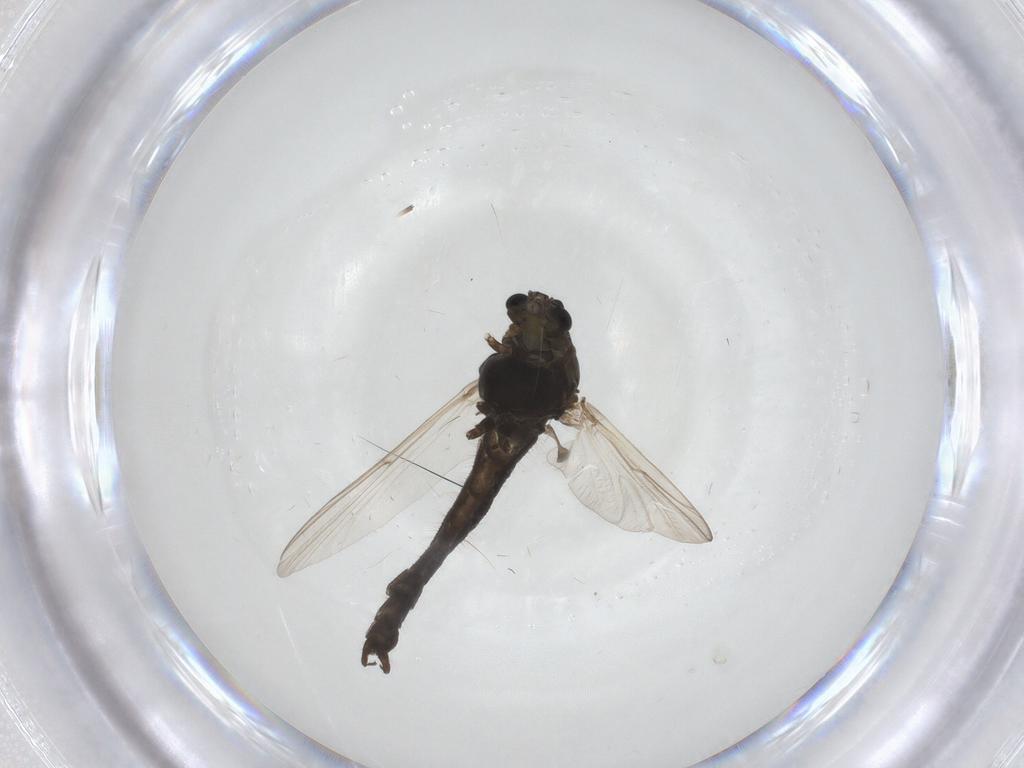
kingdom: Animalia
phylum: Arthropoda
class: Insecta
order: Diptera
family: Chironomidae
